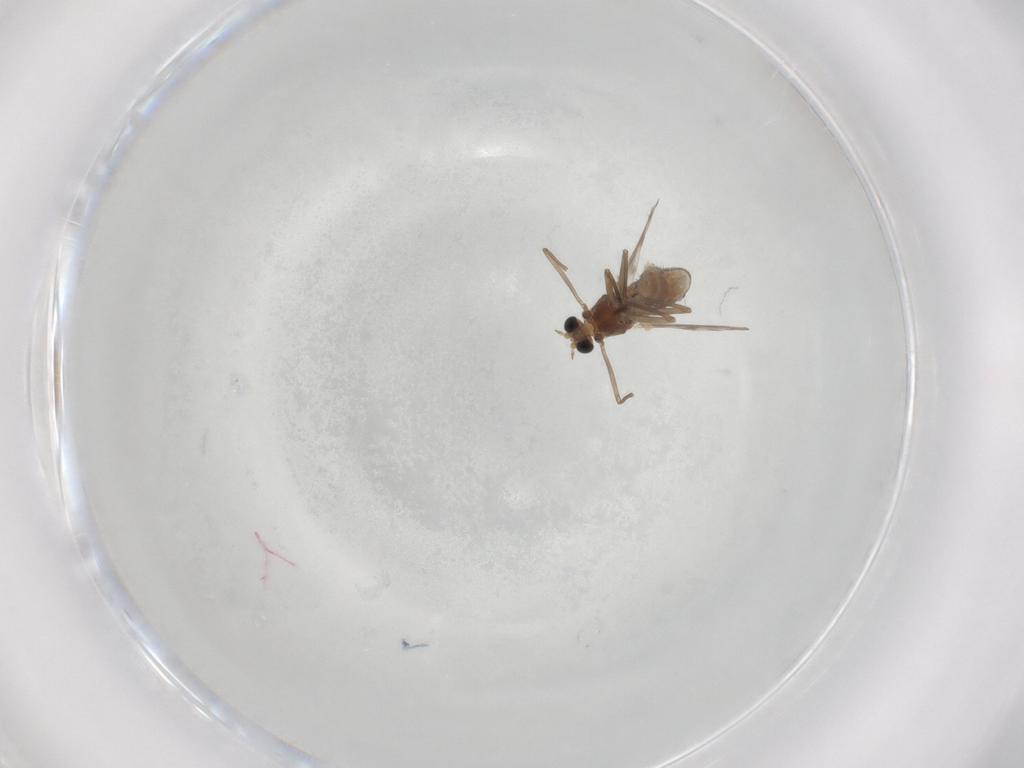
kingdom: Animalia
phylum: Arthropoda
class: Insecta
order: Diptera
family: Chironomidae
